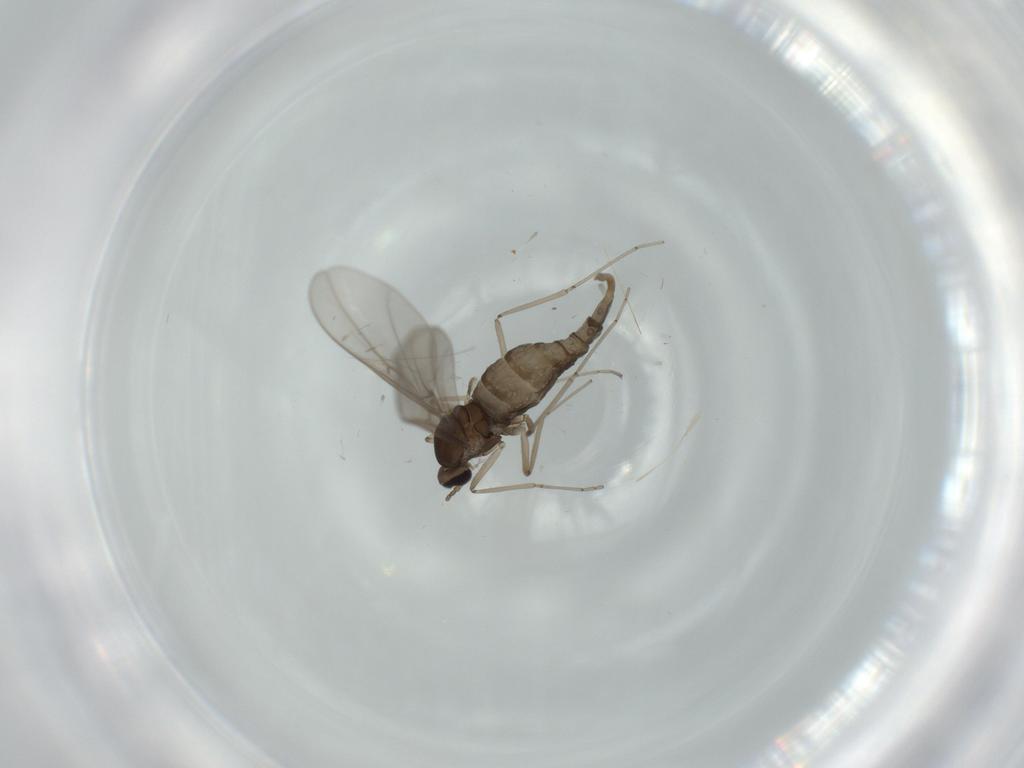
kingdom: Animalia
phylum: Arthropoda
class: Insecta
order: Diptera
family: Cecidomyiidae
